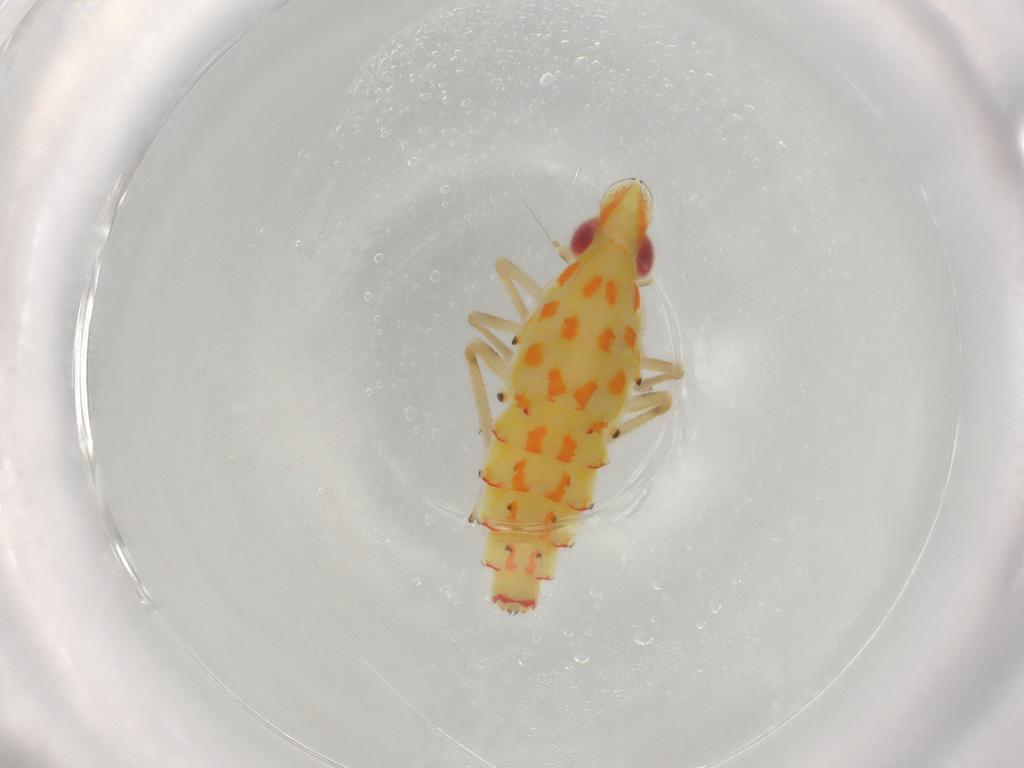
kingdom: Animalia
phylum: Arthropoda
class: Insecta
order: Hemiptera
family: Tropiduchidae
